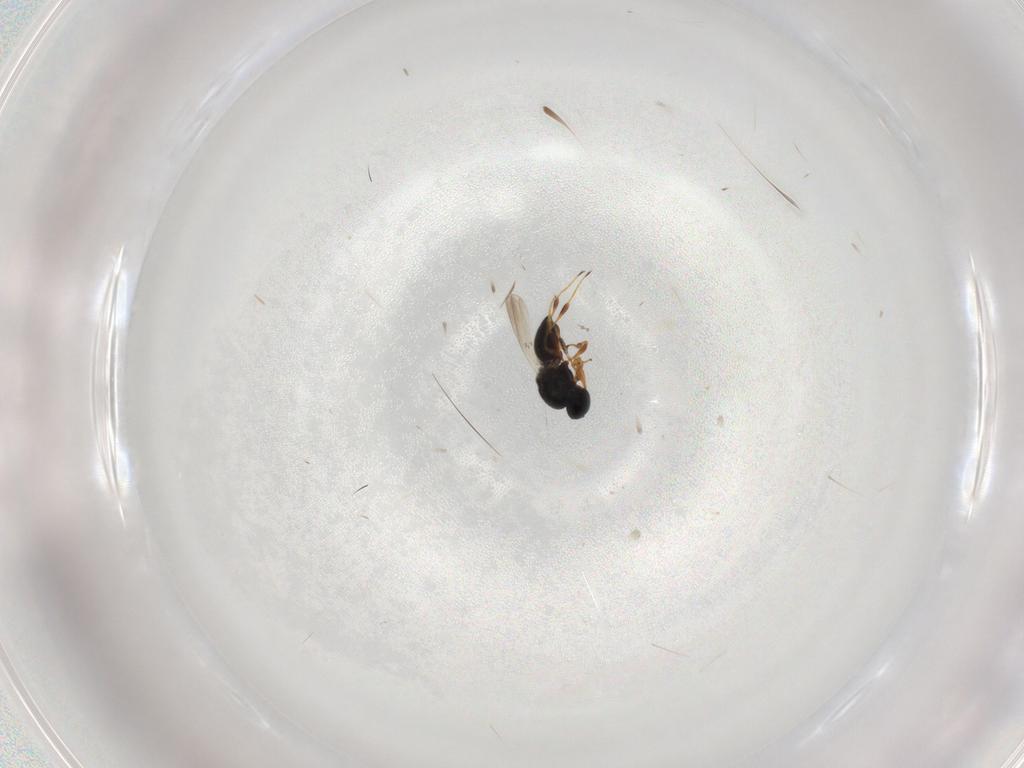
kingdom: Animalia
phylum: Arthropoda
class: Insecta
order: Hymenoptera
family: Platygastridae
